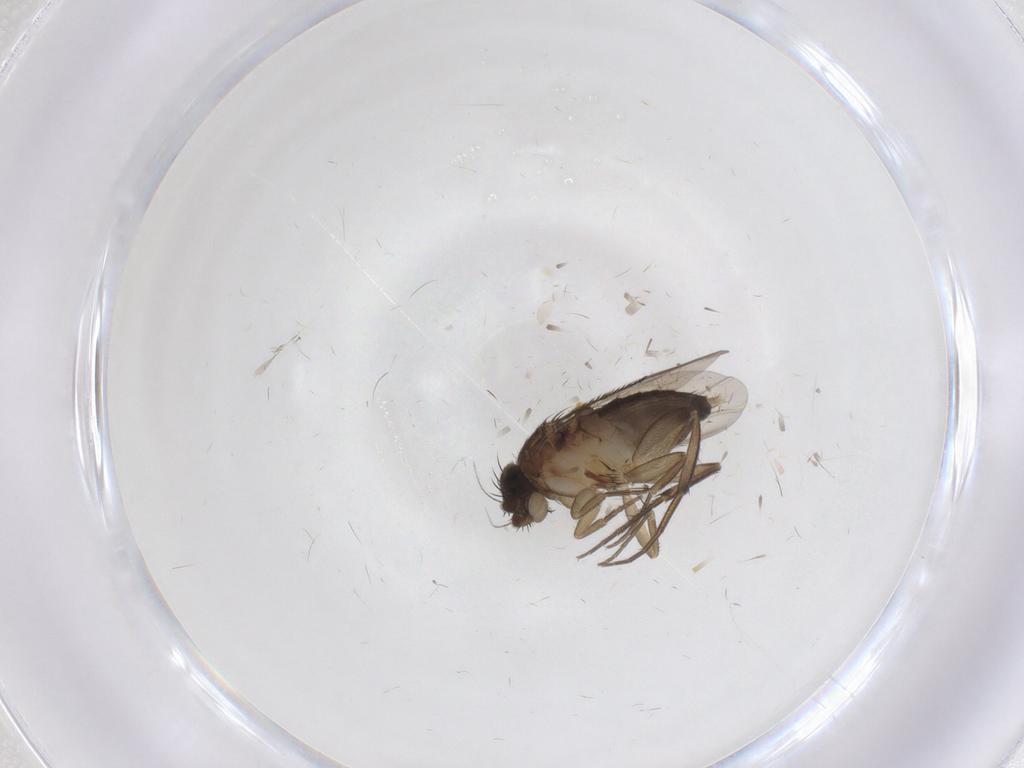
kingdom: Animalia
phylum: Arthropoda
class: Insecta
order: Diptera
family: Phoridae
